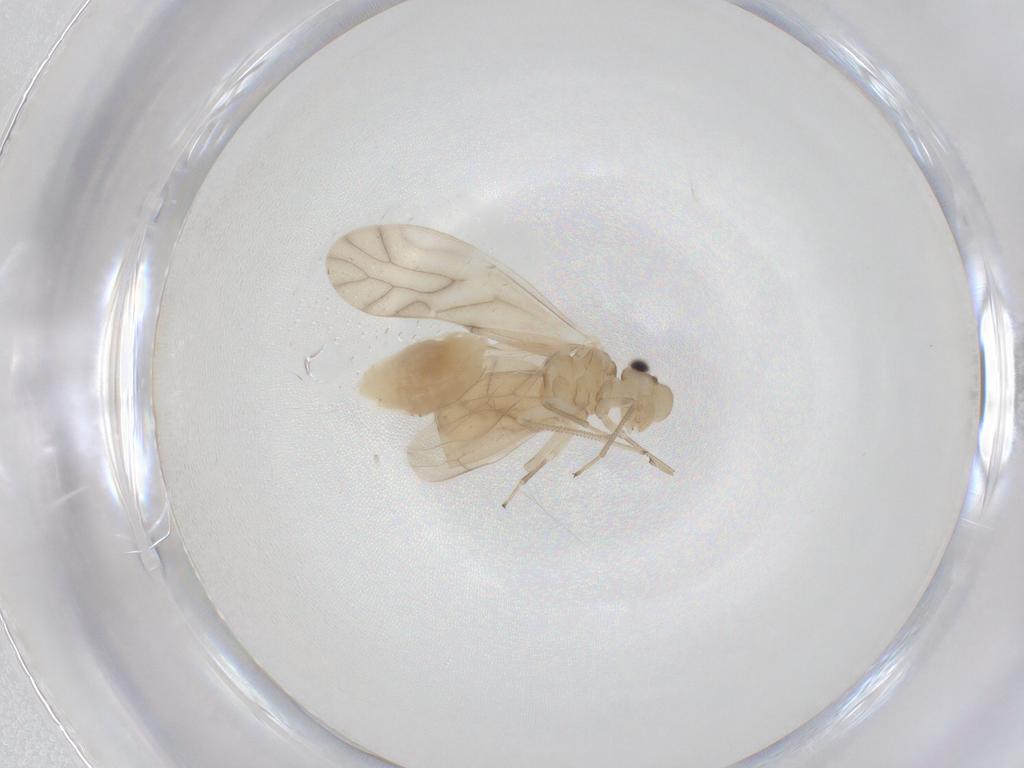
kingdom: Animalia
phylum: Arthropoda
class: Insecta
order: Psocodea
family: Caeciliusidae
